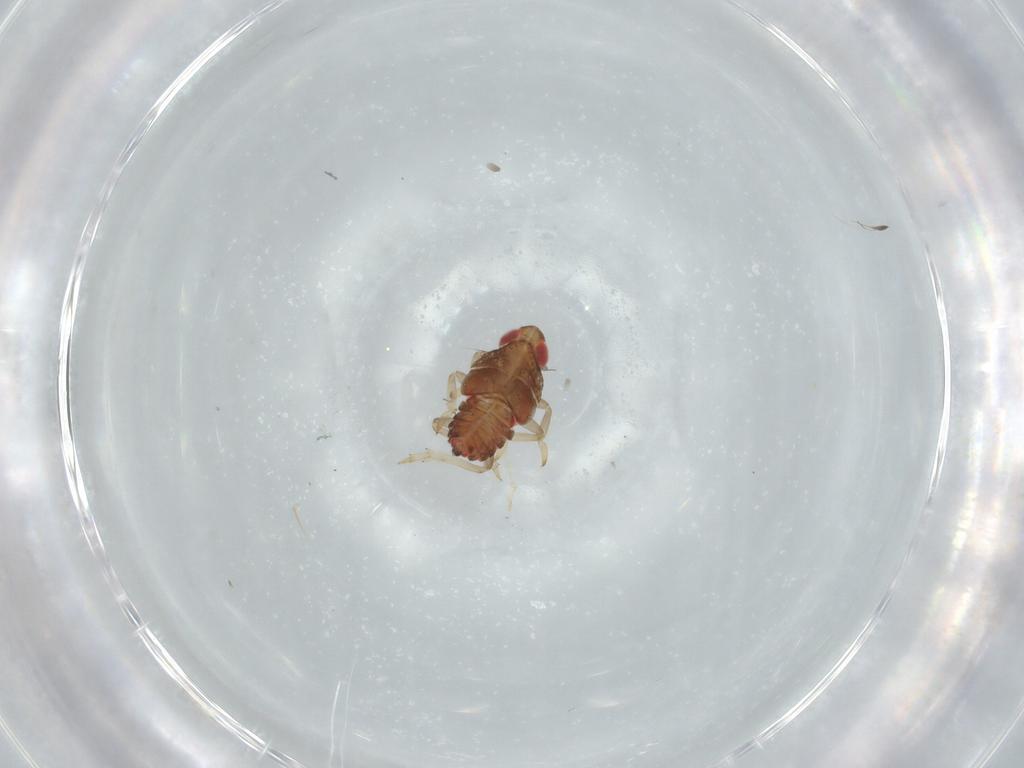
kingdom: Animalia
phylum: Arthropoda
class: Insecta
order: Hemiptera
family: Issidae
